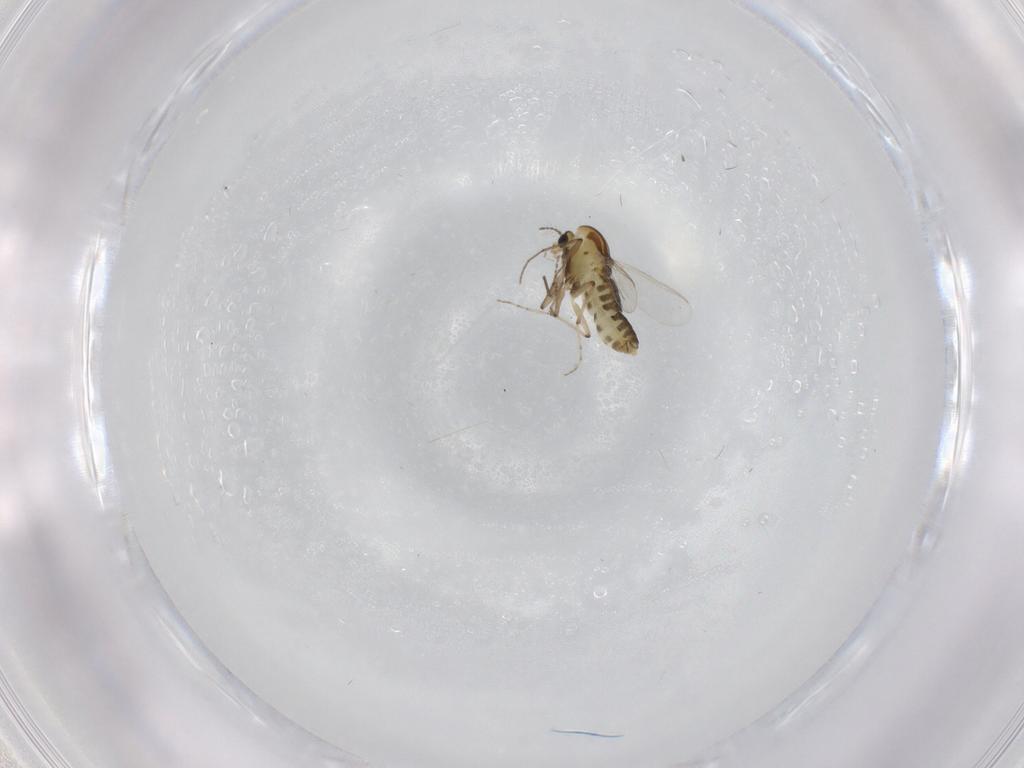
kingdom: Animalia
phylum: Arthropoda
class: Insecta
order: Diptera
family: Chironomidae
